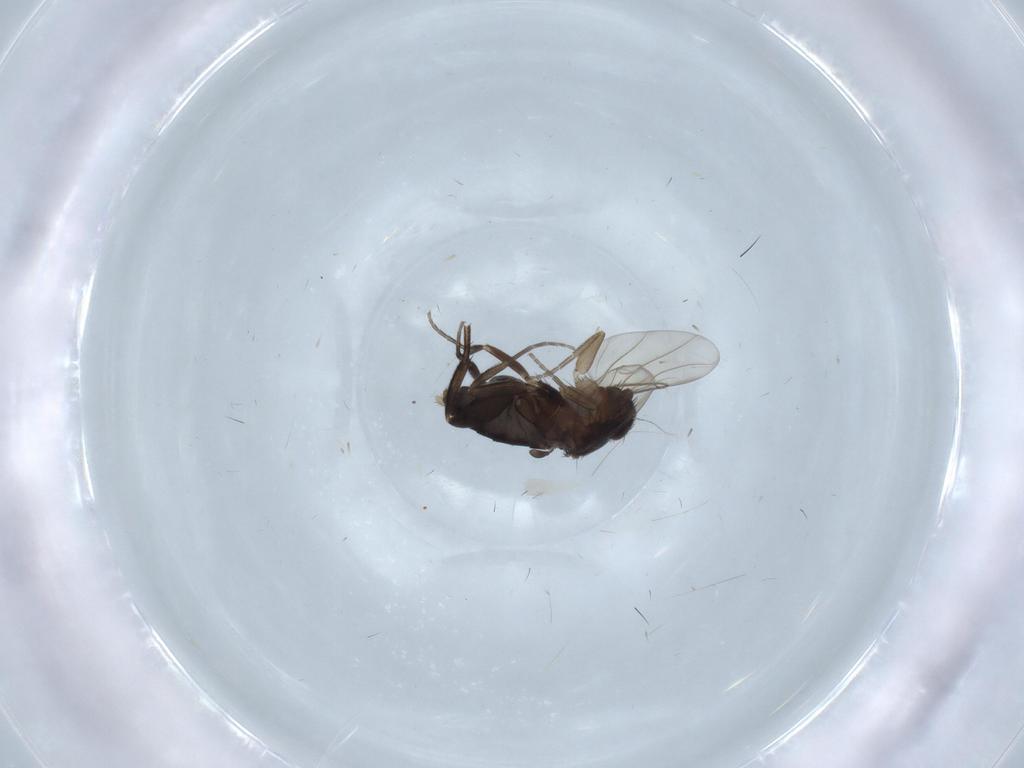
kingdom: Animalia
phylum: Arthropoda
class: Insecta
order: Diptera
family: Phoridae
